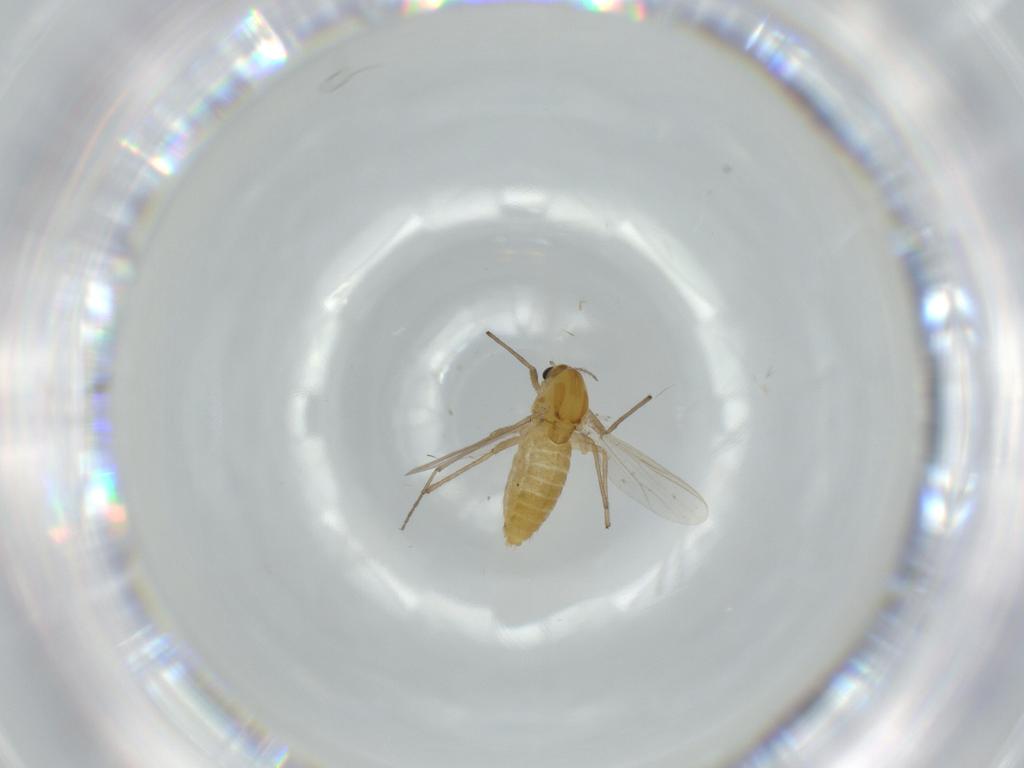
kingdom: Animalia
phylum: Arthropoda
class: Insecta
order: Diptera
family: Chironomidae
